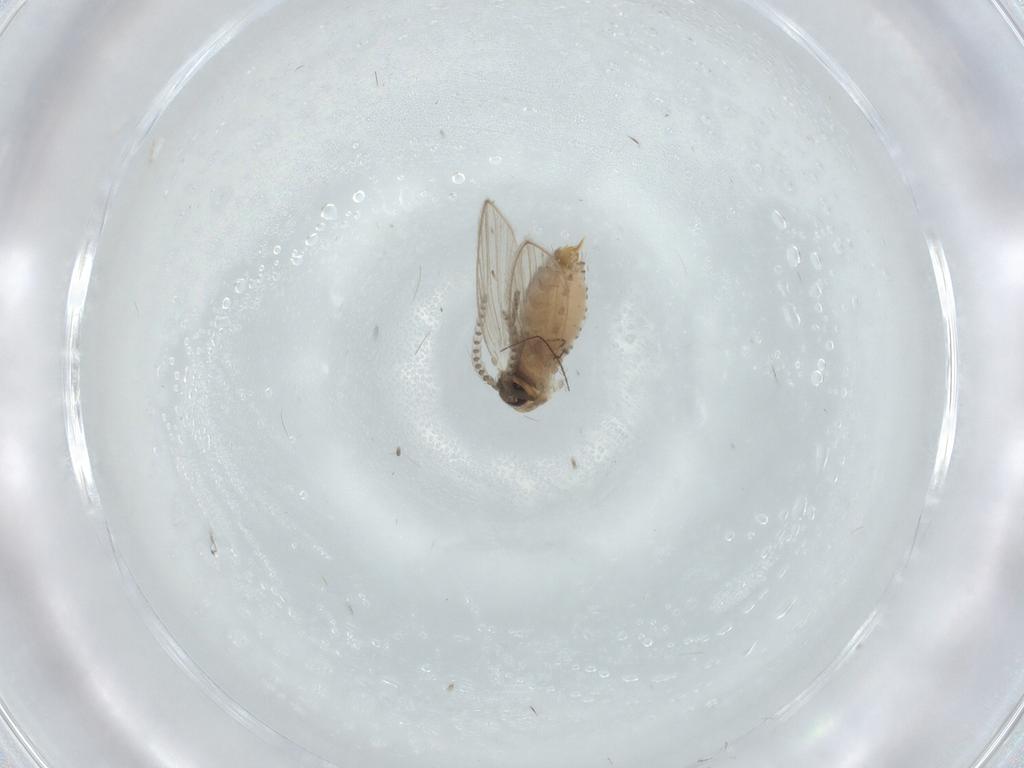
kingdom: Animalia
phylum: Arthropoda
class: Insecta
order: Diptera
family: Psychodidae
